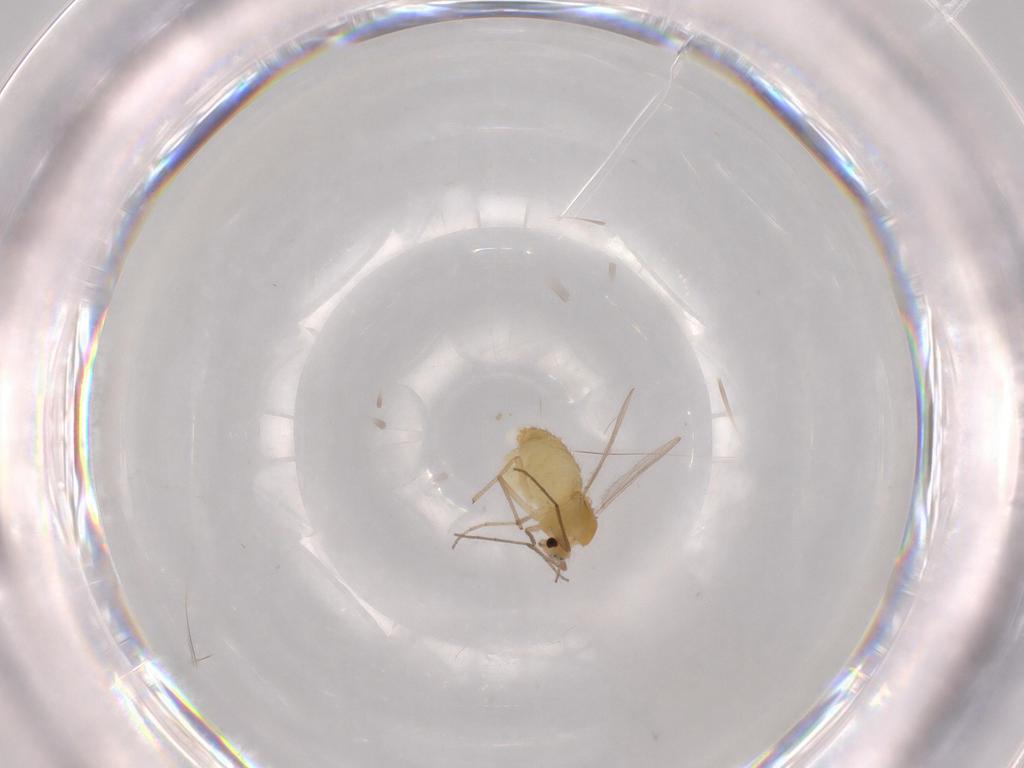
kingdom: Animalia
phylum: Arthropoda
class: Insecta
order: Diptera
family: Chironomidae
